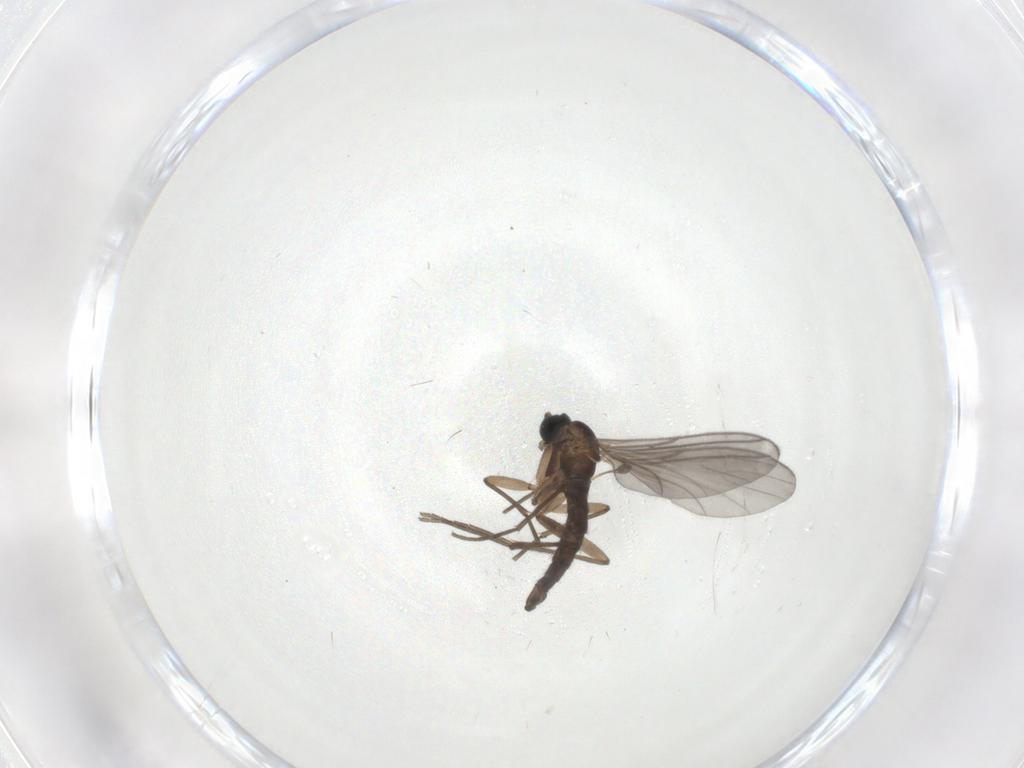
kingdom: Animalia
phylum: Arthropoda
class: Insecta
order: Diptera
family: Sciaridae
